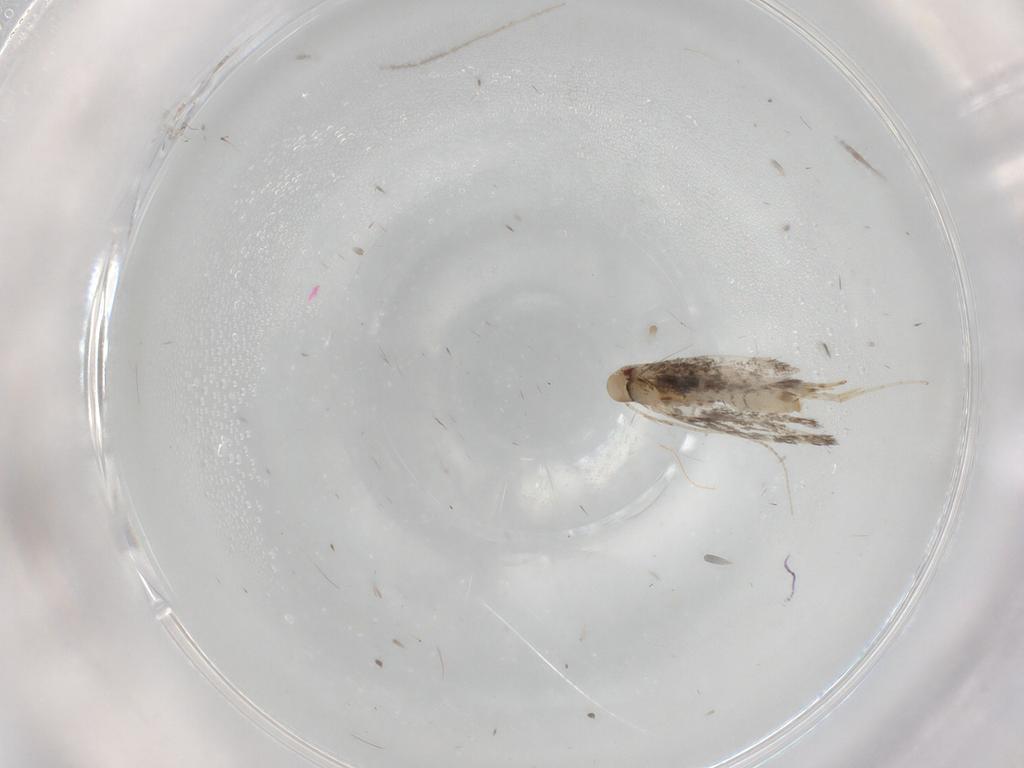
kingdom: Animalia
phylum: Arthropoda
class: Insecta
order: Lepidoptera
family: Gracillariidae
